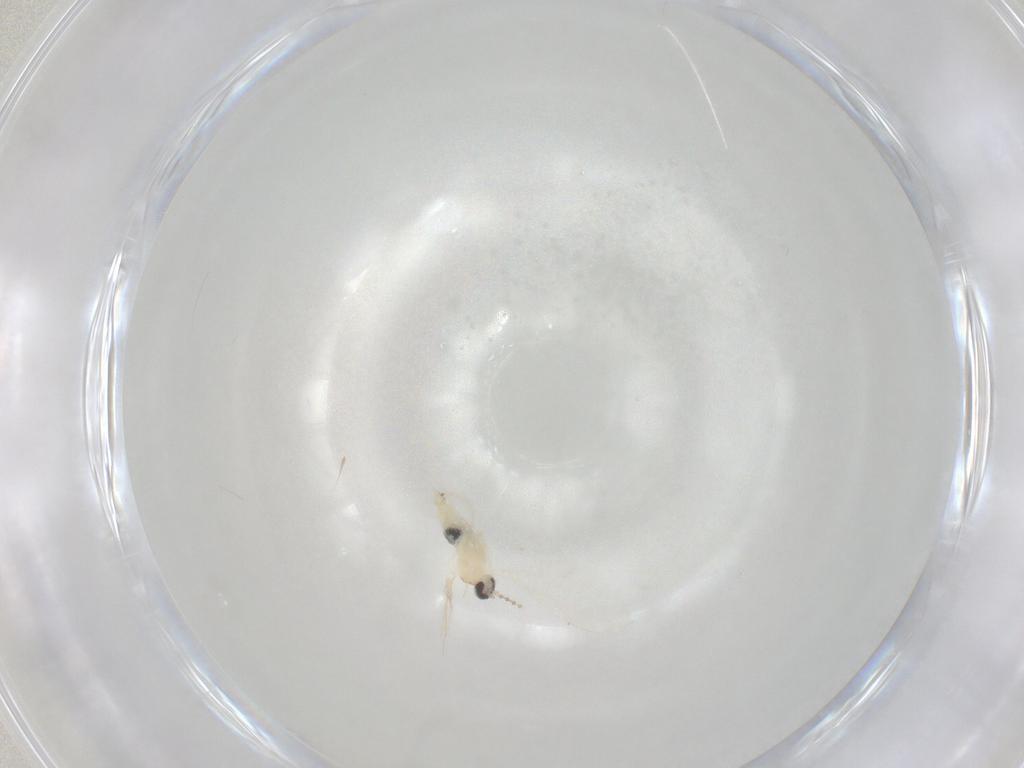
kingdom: Animalia
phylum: Arthropoda
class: Insecta
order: Diptera
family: Cecidomyiidae
